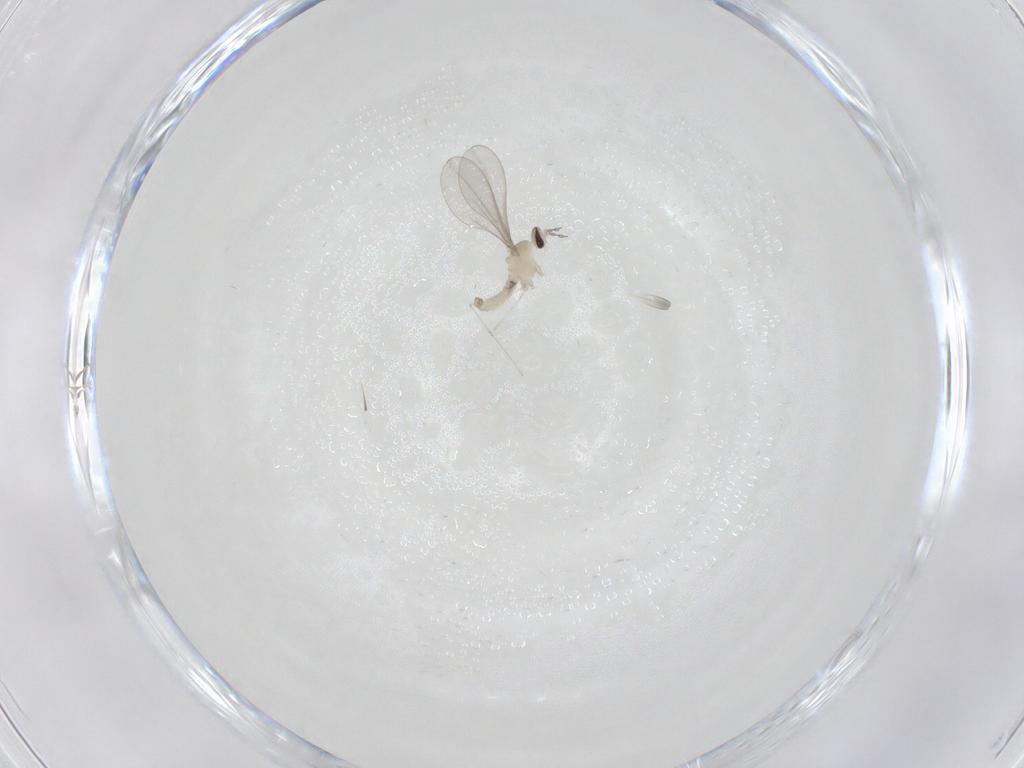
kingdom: Animalia
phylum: Arthropoda
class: Insecta
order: Diptera
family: Cecidomyiidae
